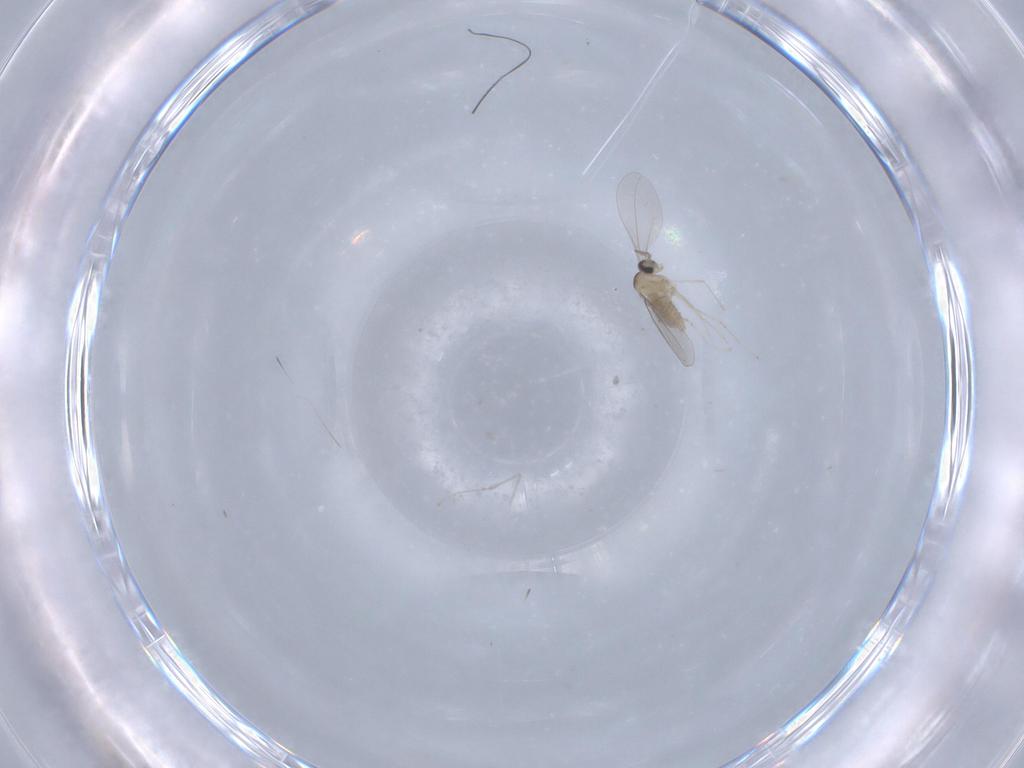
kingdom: Animalia
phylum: Arthropoda
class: Insecta
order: Diptera
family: Cecidomyiidae
